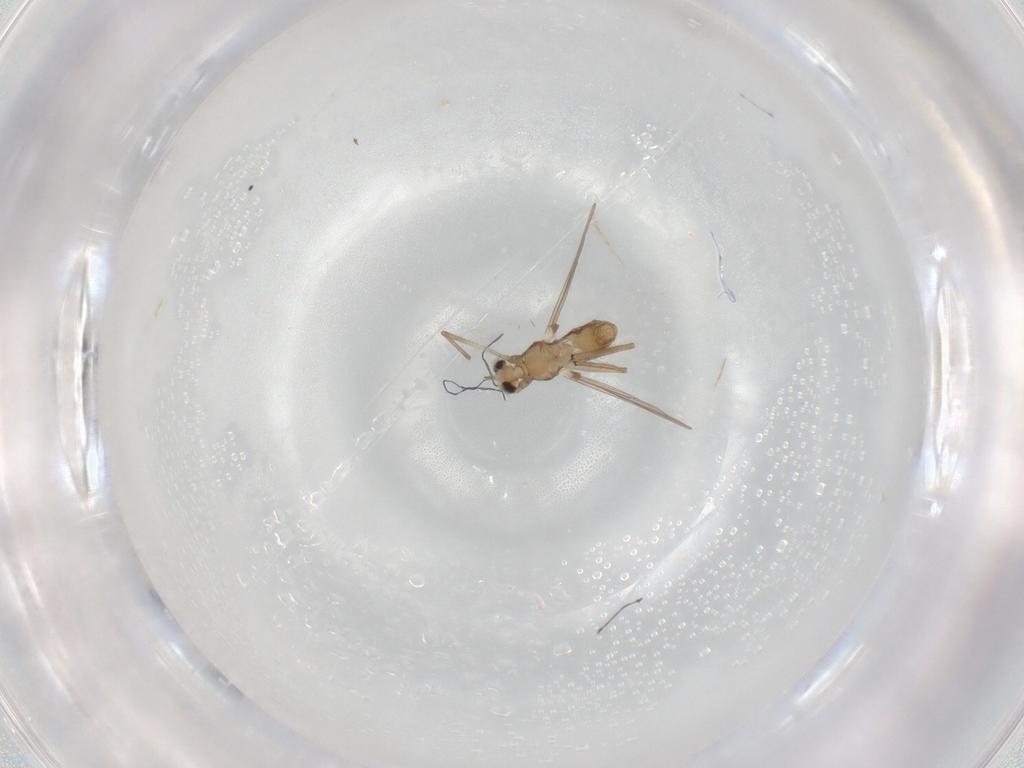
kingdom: Animalia
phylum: Arthropoda
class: Insecta
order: Diptera
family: Chironomidae
